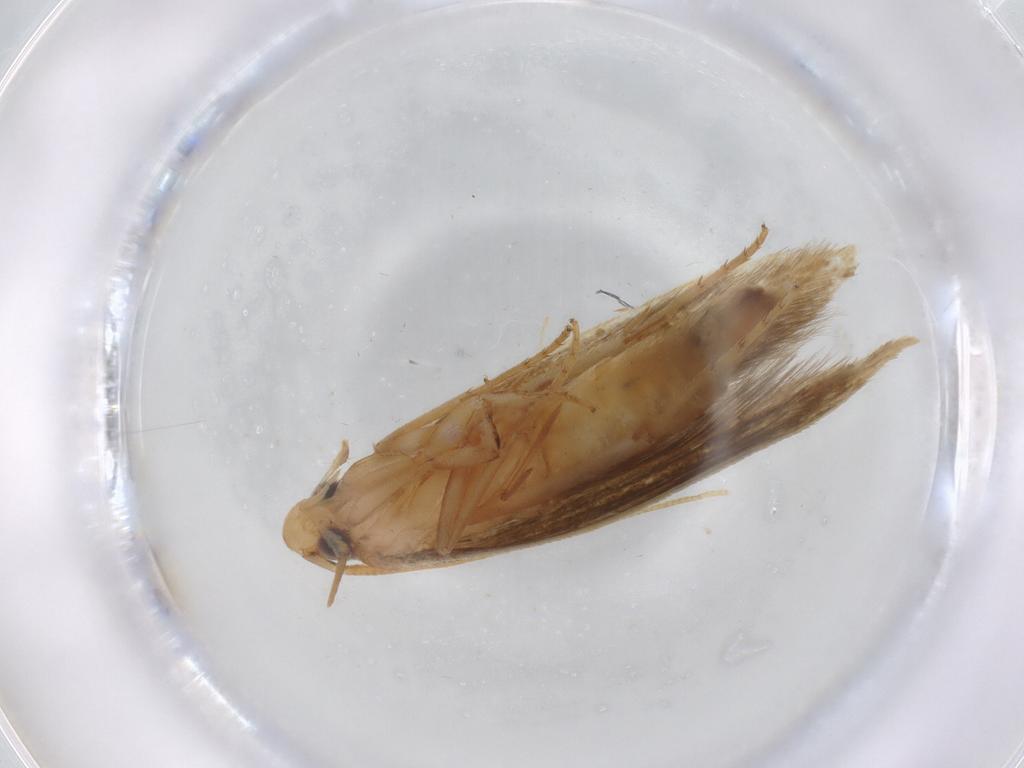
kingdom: Animalia
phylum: Arthropoda
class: Insecta
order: Lepidoptera
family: Tineidae
